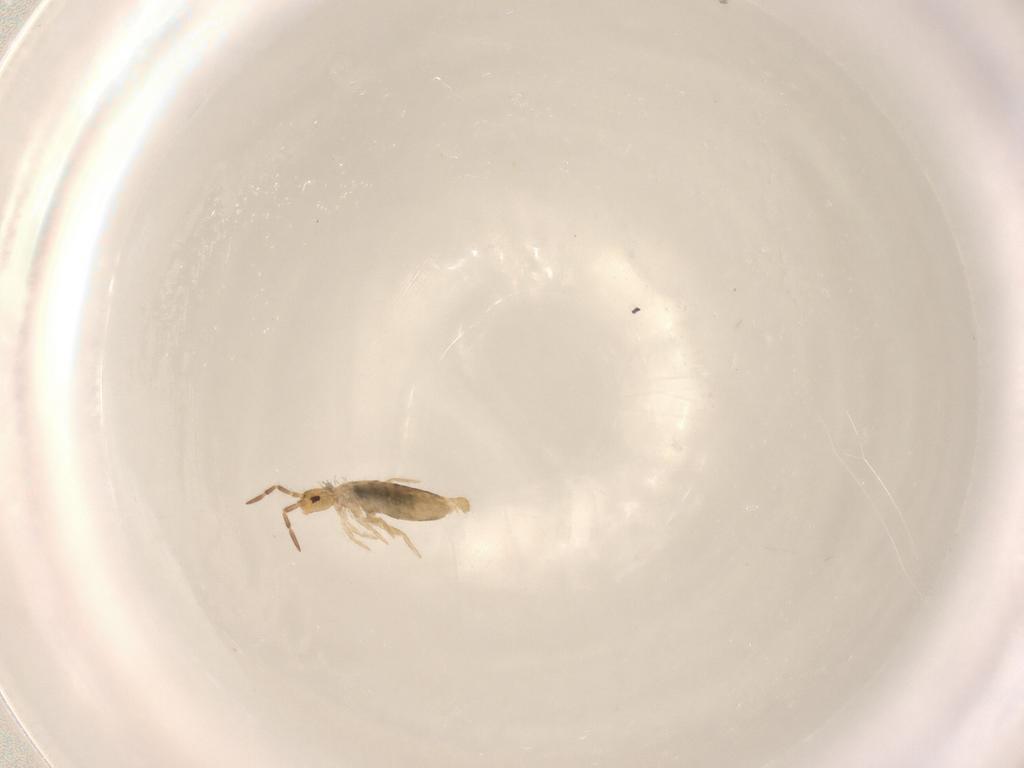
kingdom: Animalia
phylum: Arthropoda
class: Collembola
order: Entomobryomorpha
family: Entomobryidae
